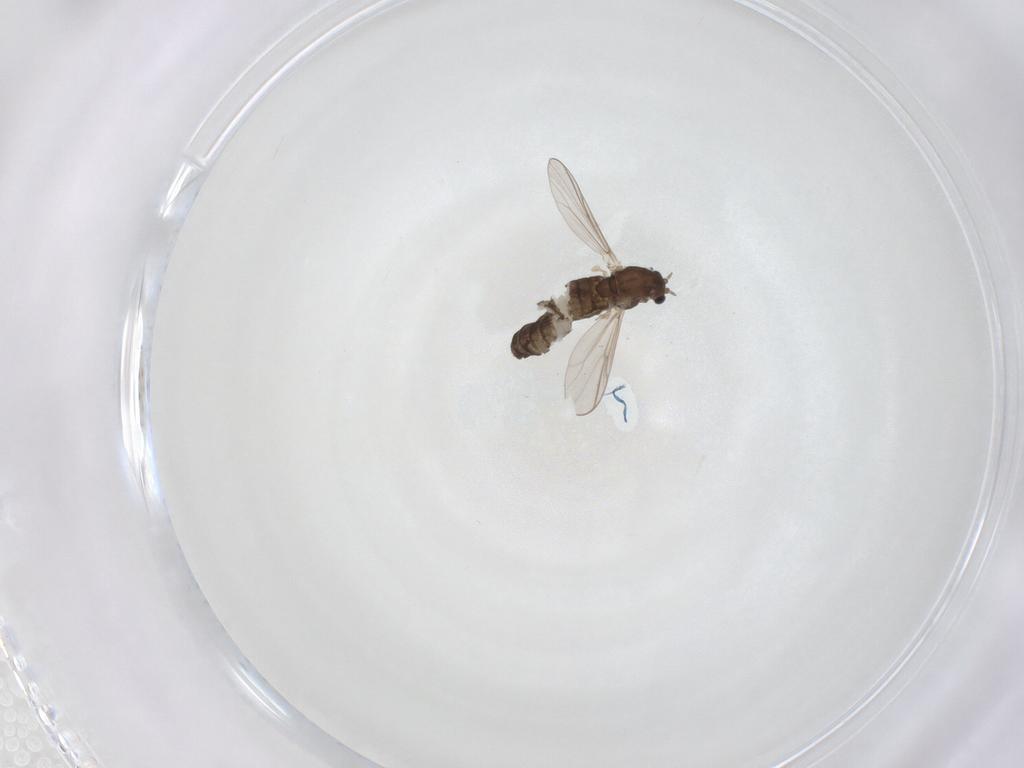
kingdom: Animalia
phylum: Arthropoda
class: Insecta
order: Diptera
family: Chironomidae
